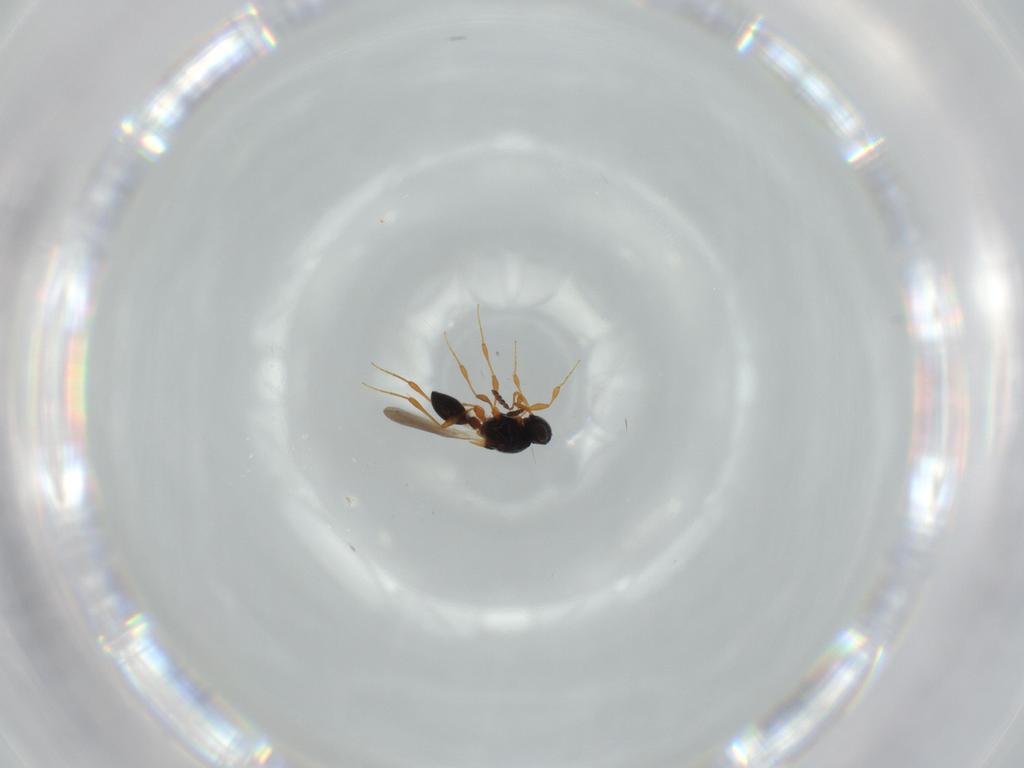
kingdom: Animalia
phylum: Arthropoda
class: Insecta
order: Hymenoptera
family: Platygastridae
